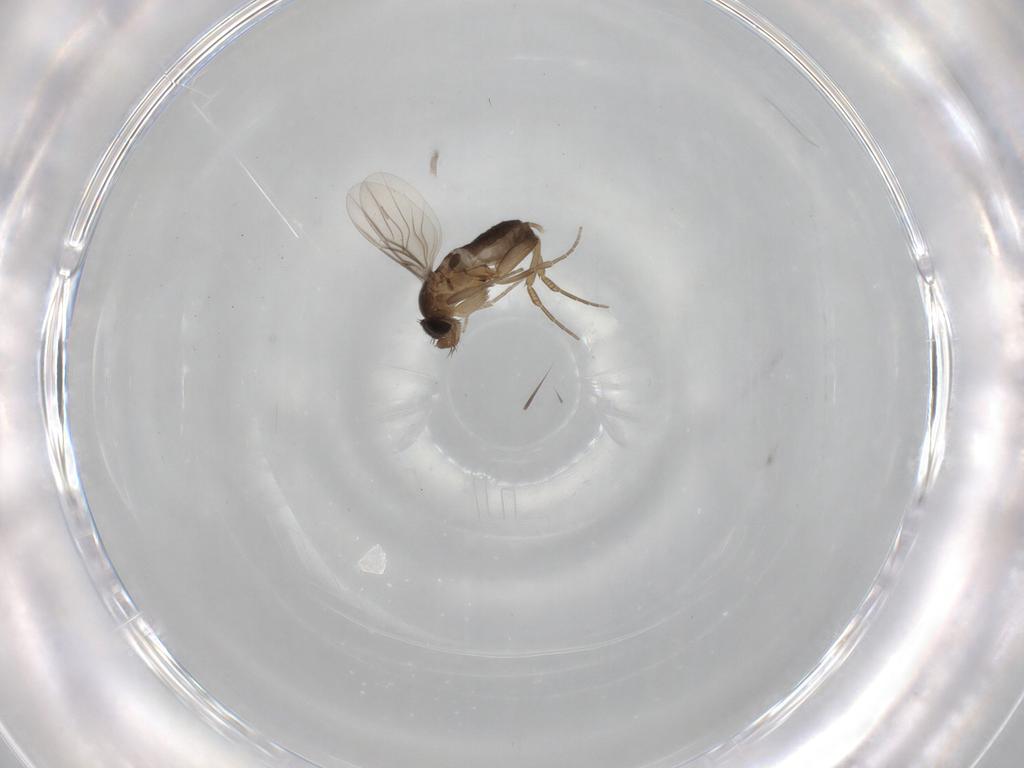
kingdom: Animalia
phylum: Arthropoda
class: Insecta
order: Diptera
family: Phoridae
